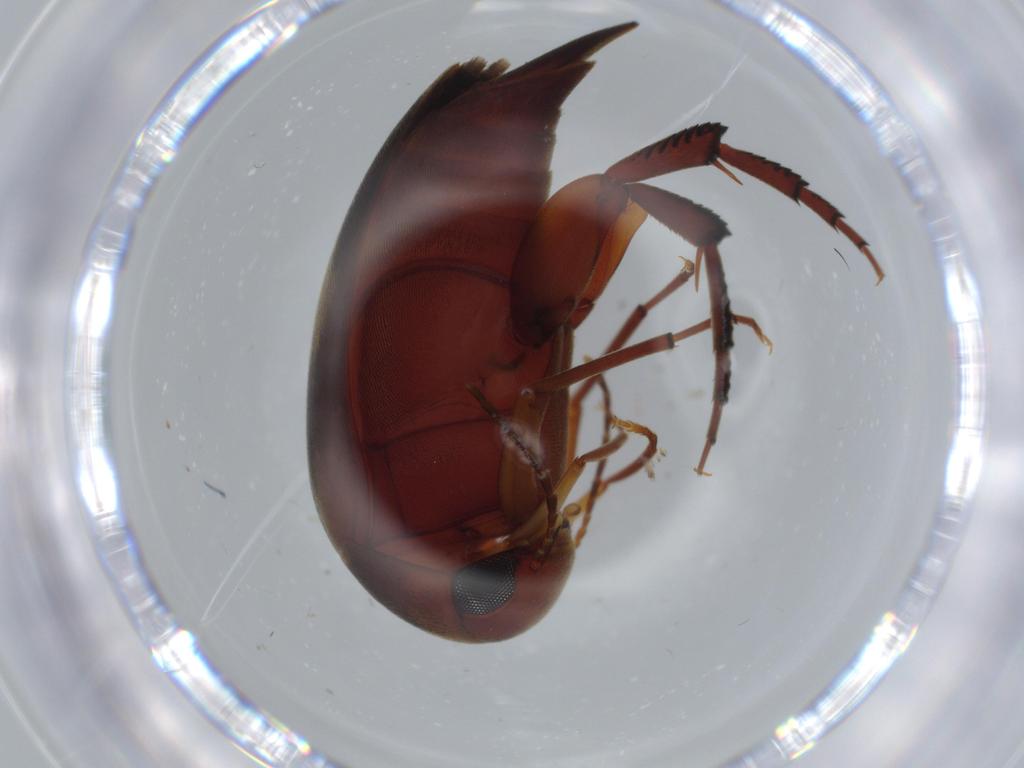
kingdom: Animalia
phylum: Arthropoda
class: Insecta
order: Coleoptera
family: Mordellidae
